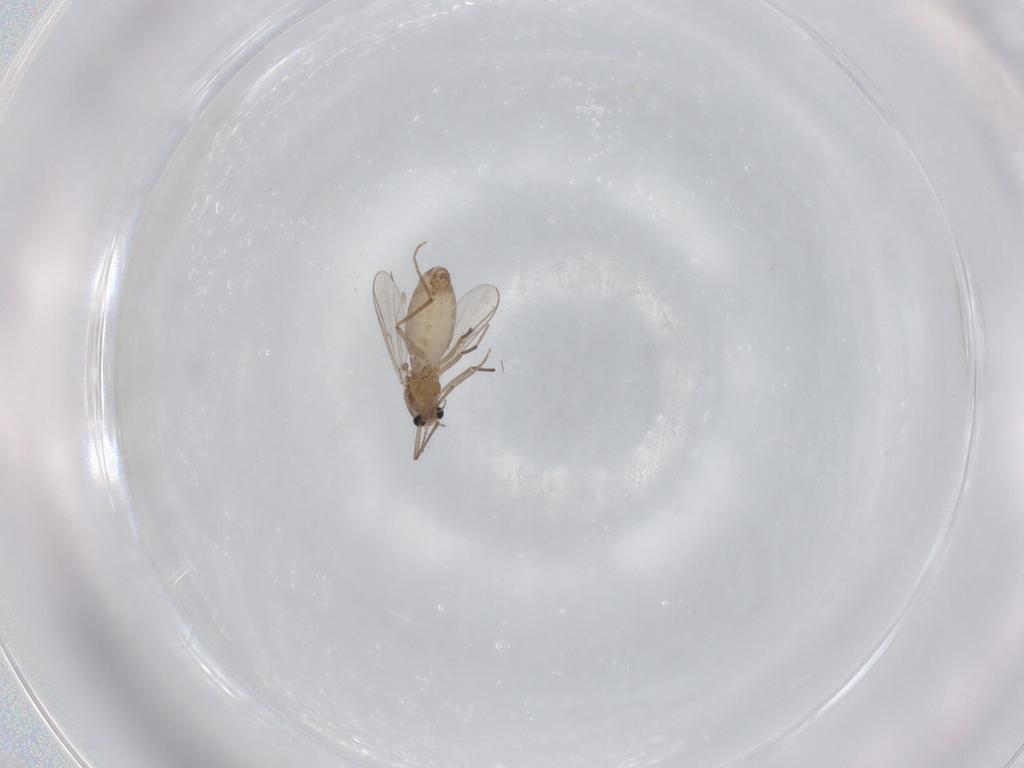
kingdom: Animalia
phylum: Arthropoda
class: Insecta
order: Diptera
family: Chironomidae
